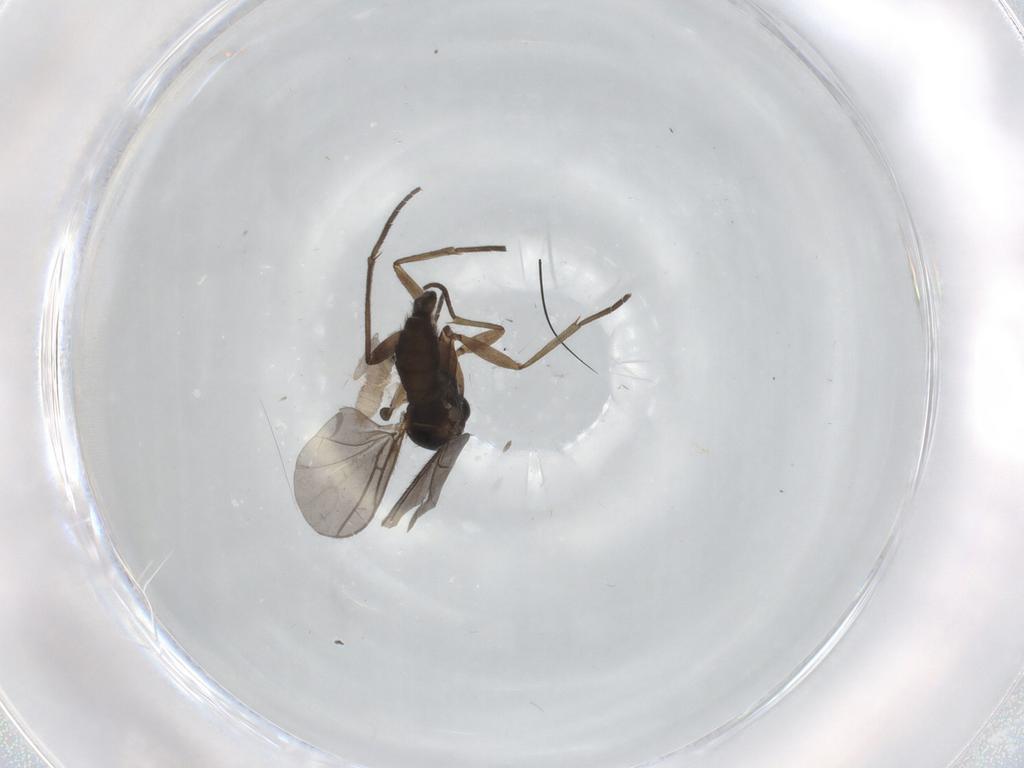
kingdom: Animalia
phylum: Arthropoda
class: Insecta
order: Diptera
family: Cecidomyiidae
